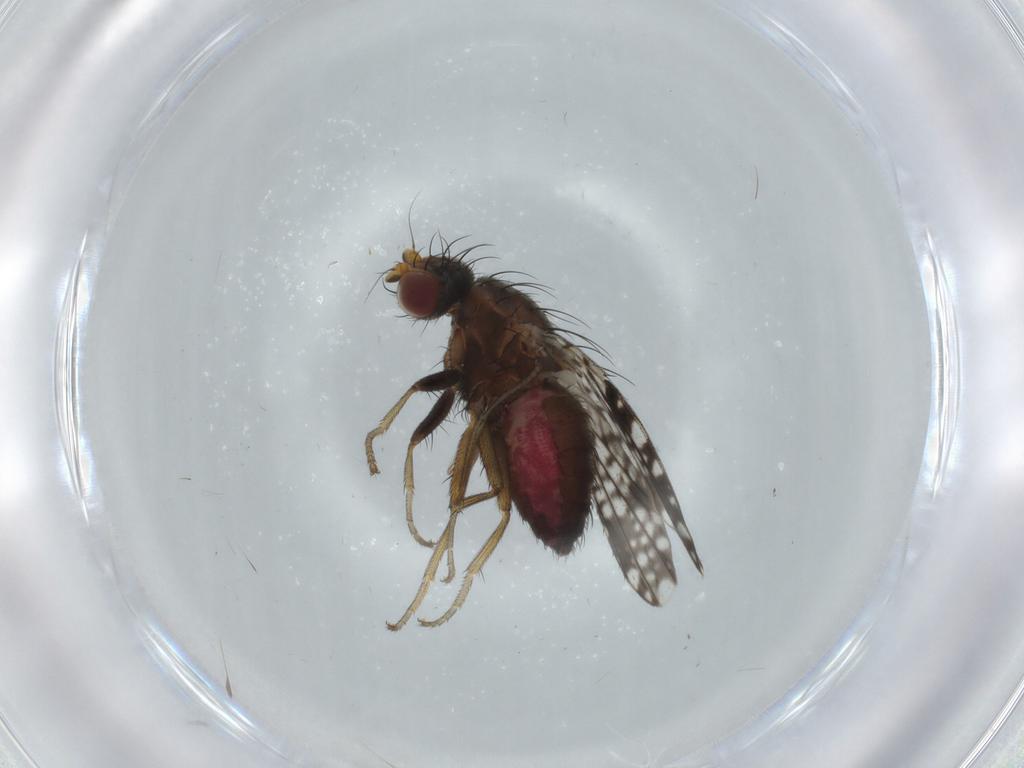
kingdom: Animalia
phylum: Arthropoda
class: Insecta
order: Diptera
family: Tephritidae
